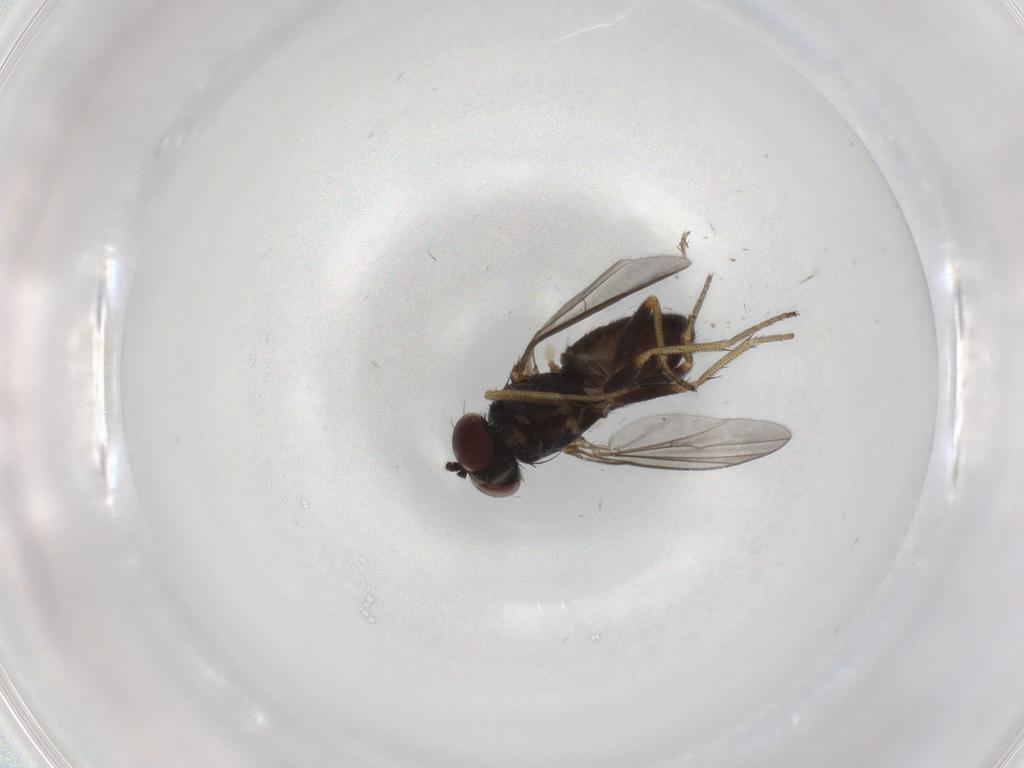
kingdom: Animalia
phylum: Arthropoda
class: Insecta
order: Diptera
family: Dolichopodidae
